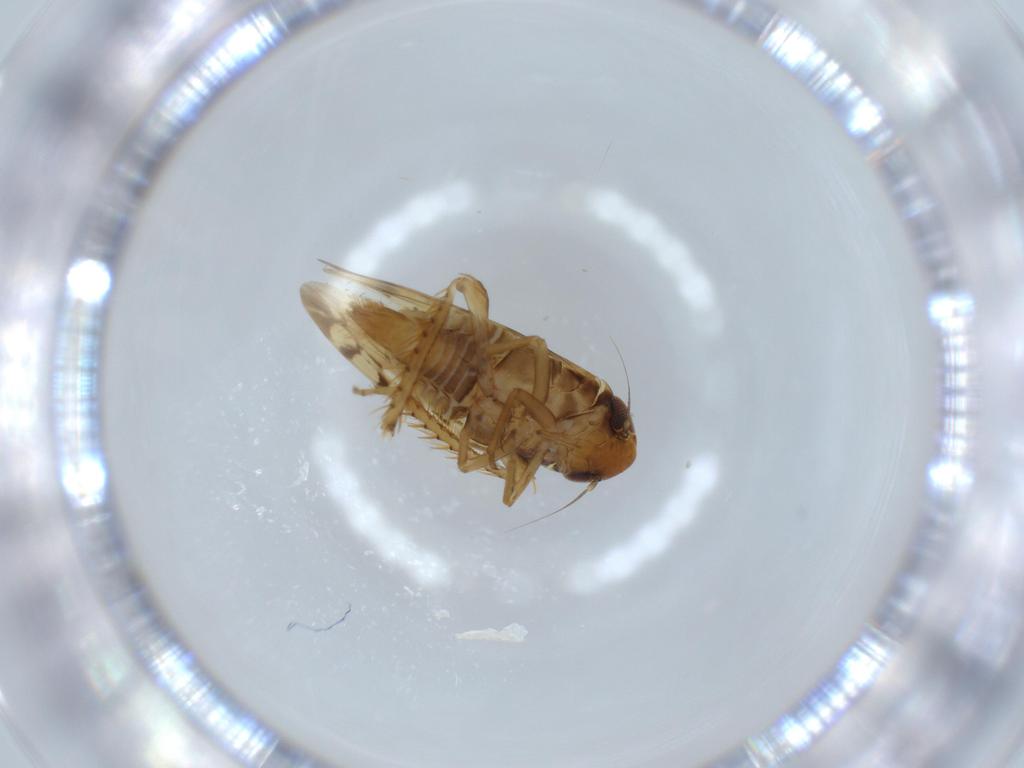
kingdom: Animalia
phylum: Arthropoda
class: Insecta
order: Hemiptera
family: Cicadellidae
